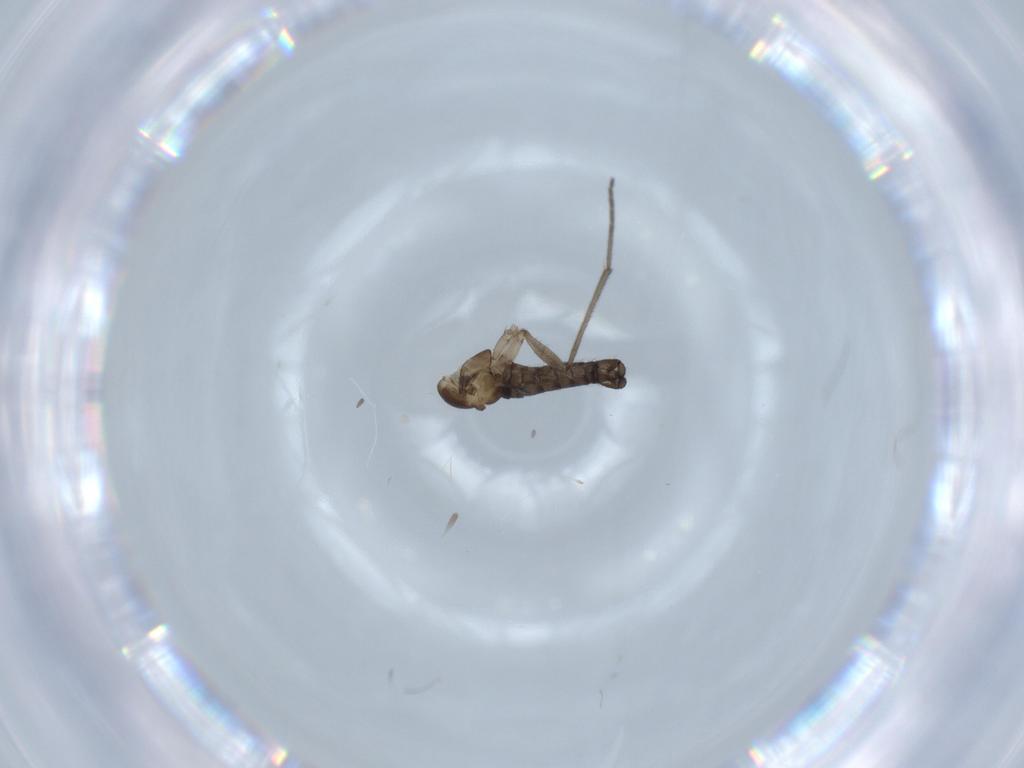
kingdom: Animalia
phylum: Arthropoda
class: Insecta
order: Diptera
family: Sciaridae
